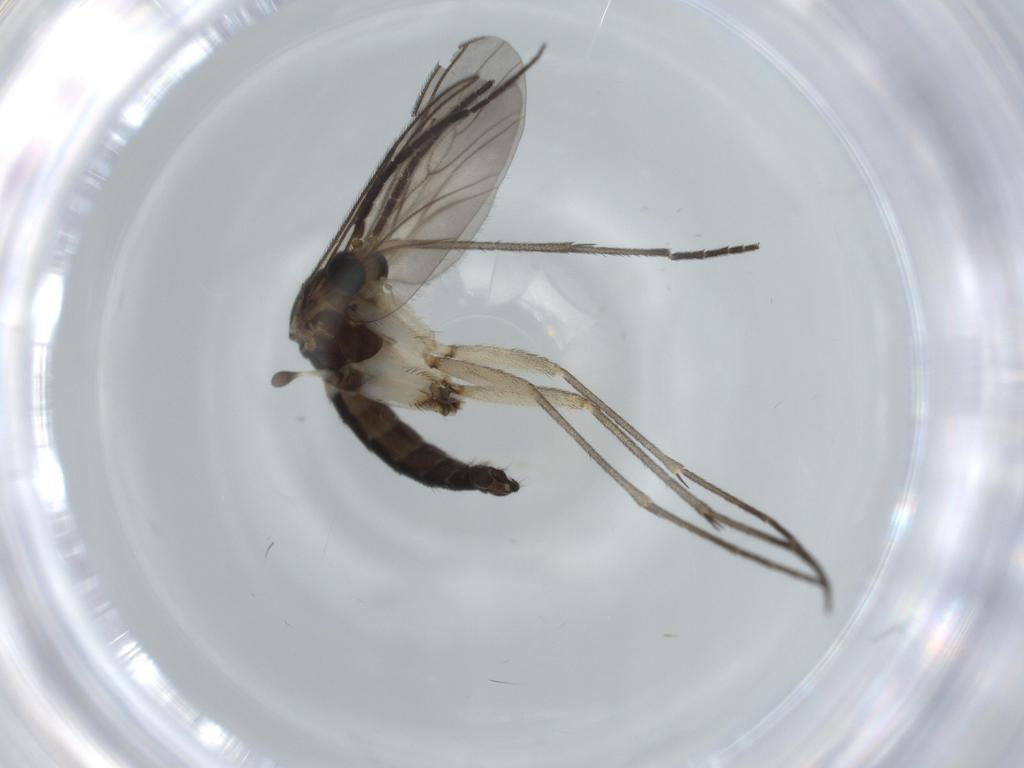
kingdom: Animalia
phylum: Arthropoda
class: Insecta
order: Diptera
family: Sciaridae
